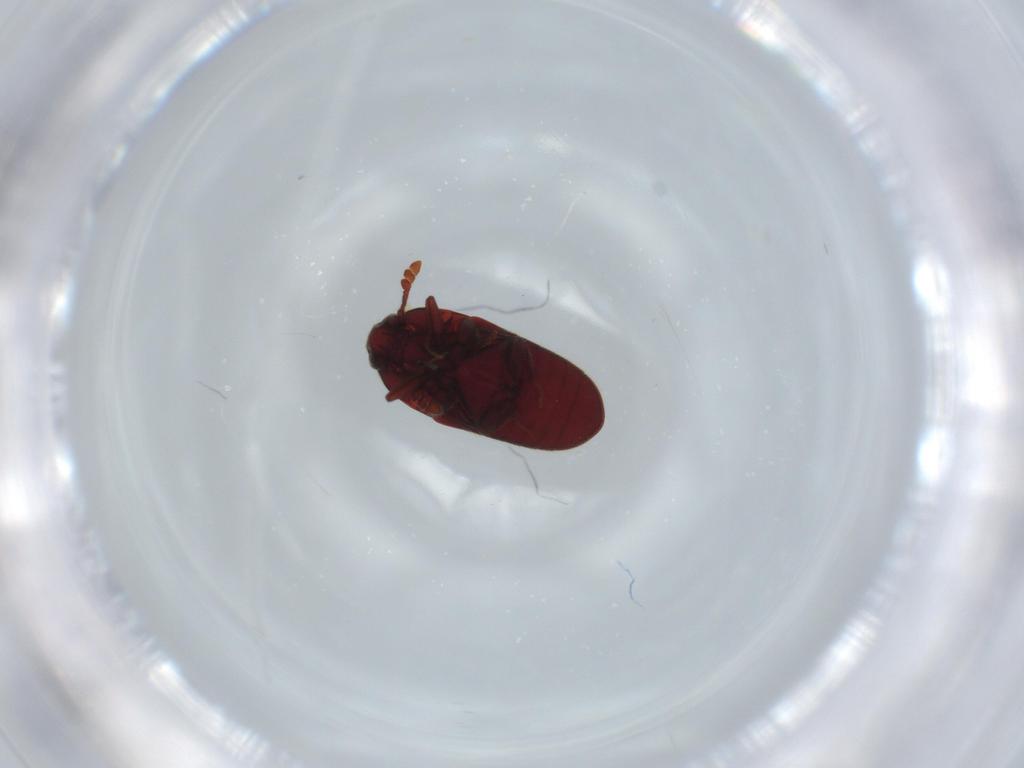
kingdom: Animalia
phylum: Arthropoda
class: Insecta
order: Coleoptera
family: Throscidae
